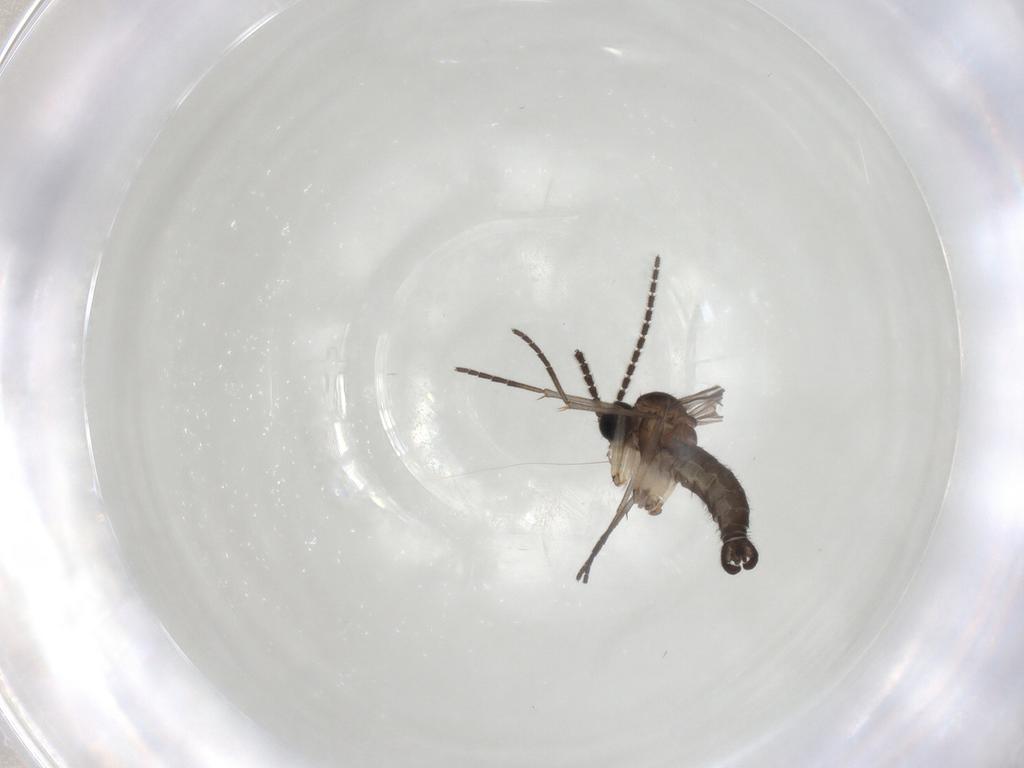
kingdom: Animalia
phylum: Arthropoda
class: Insecta
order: Diptera
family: Sciaridae
